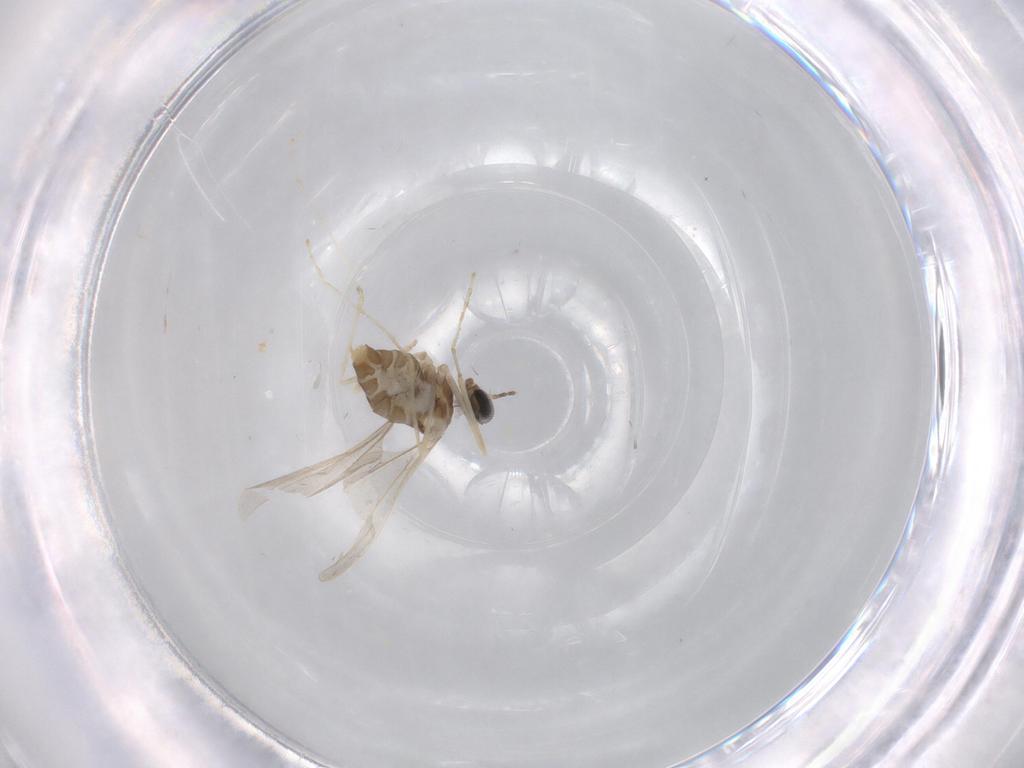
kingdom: Animalia
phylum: Arthropoda
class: Insecta
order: Diptera
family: Cecidomyiidae
